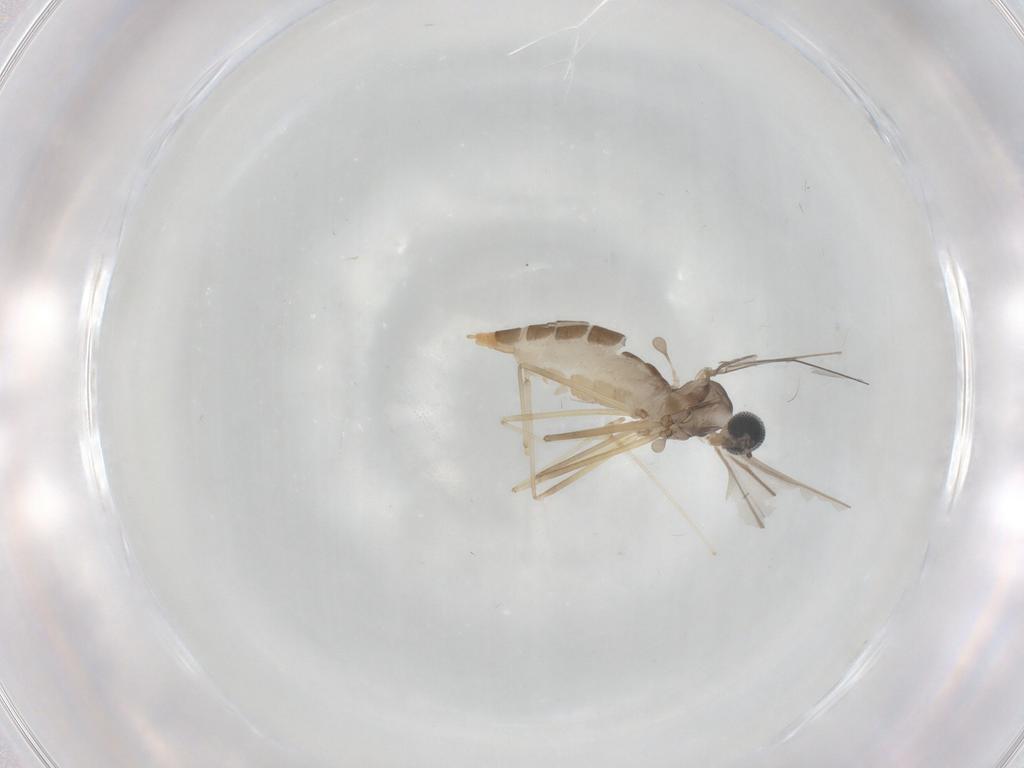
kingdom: Animalia
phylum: Arthropoda
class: Insecta
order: Diptera
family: Cecidomyiidae
